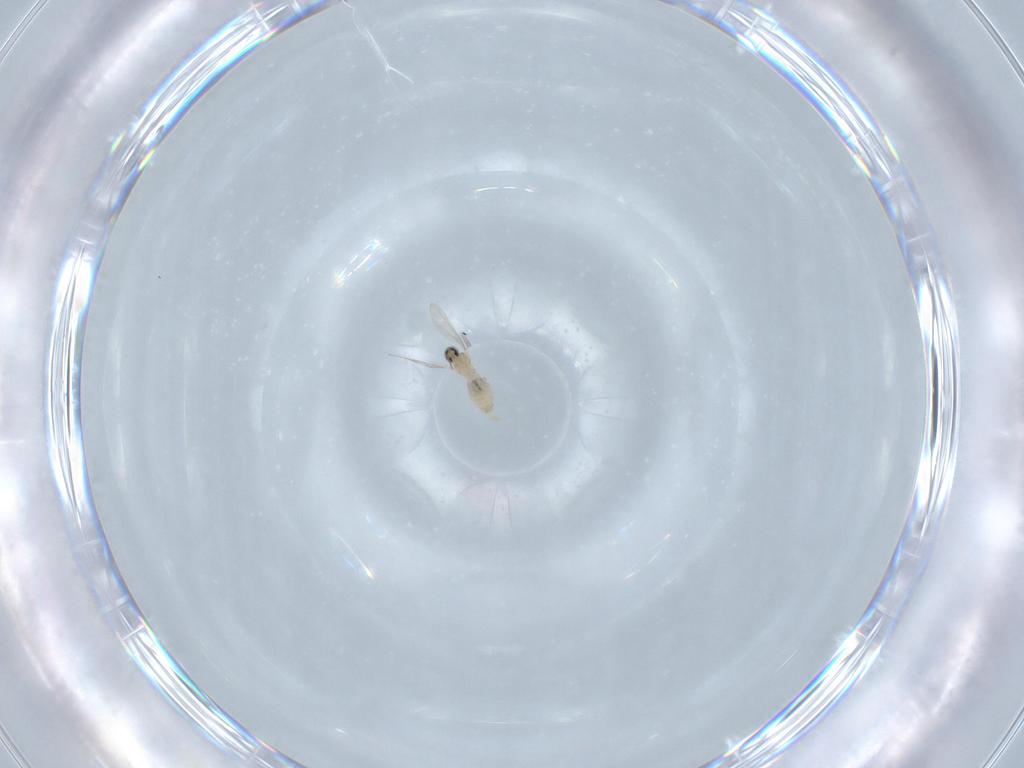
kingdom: Animalia
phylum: Arthropoda
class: Insecta
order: Diptera
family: Cecidomyiidae
